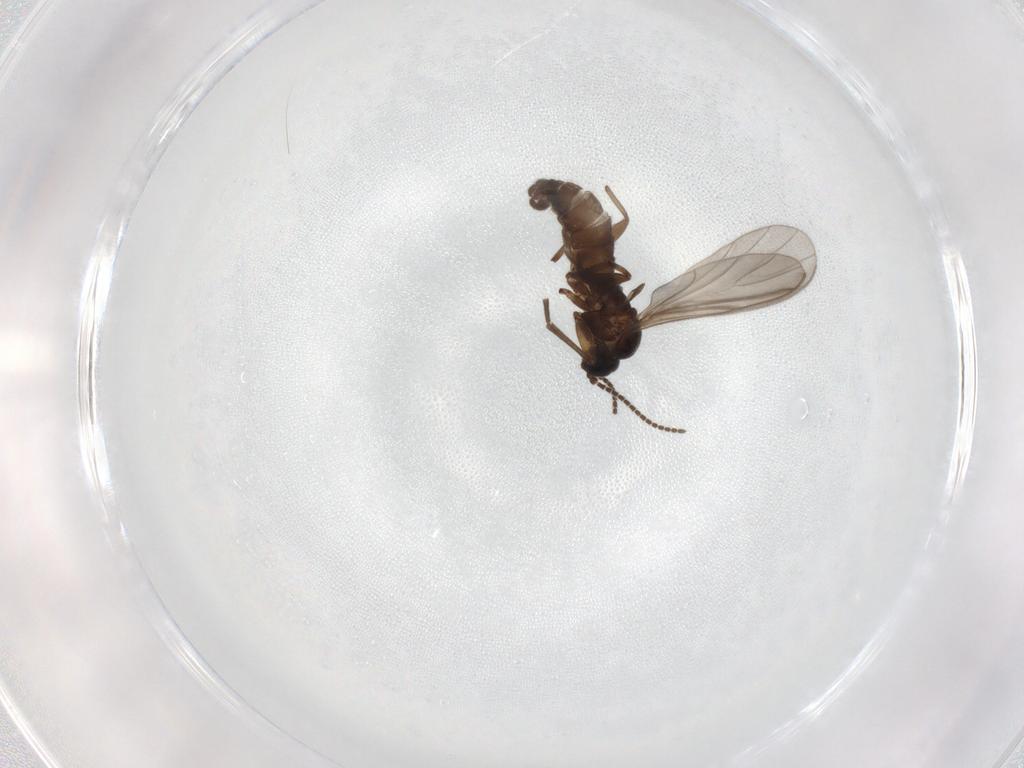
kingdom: Animalia
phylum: Arthropoda
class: Insecta
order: Diptera
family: Sciaridae
